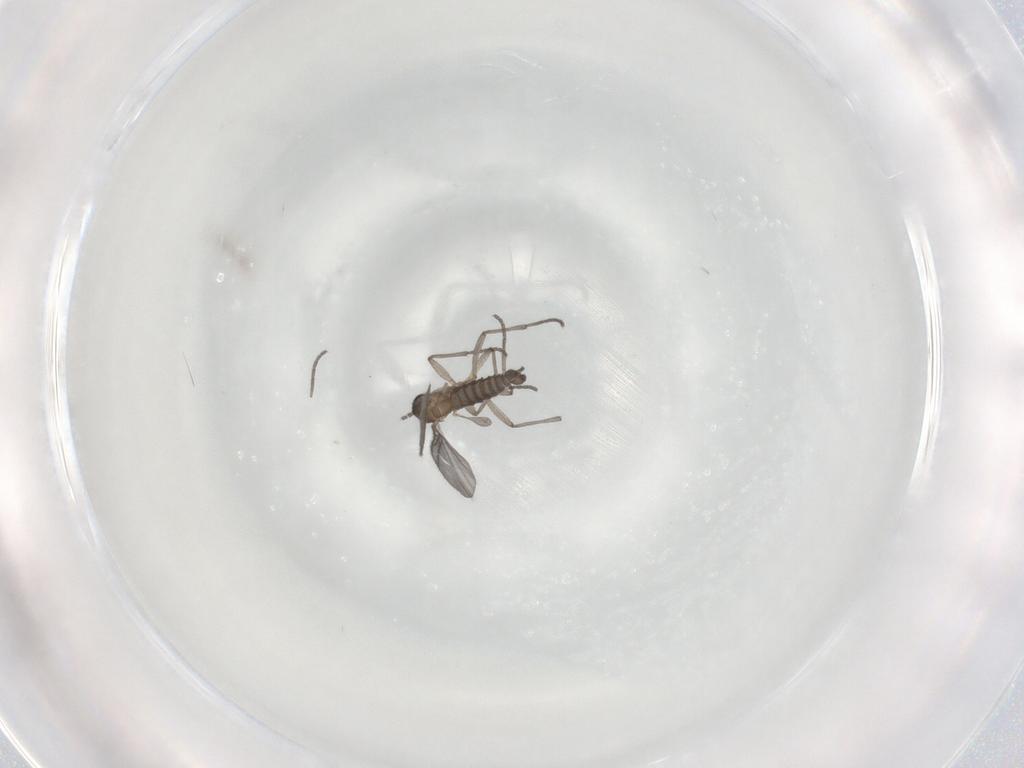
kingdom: Animalia
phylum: Arthropoda
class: Insecta
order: Diptera
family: Sciaridae
